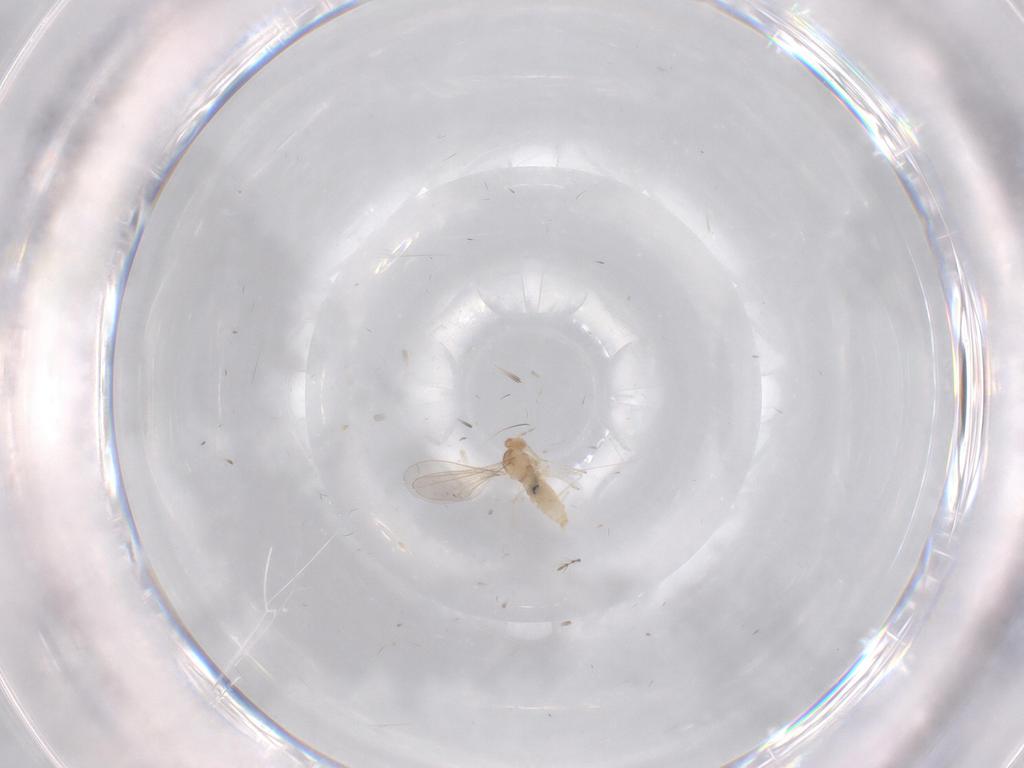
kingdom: Animalia
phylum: Arthropoda
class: Insecta
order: Diptera
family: Cecidomyiidae
